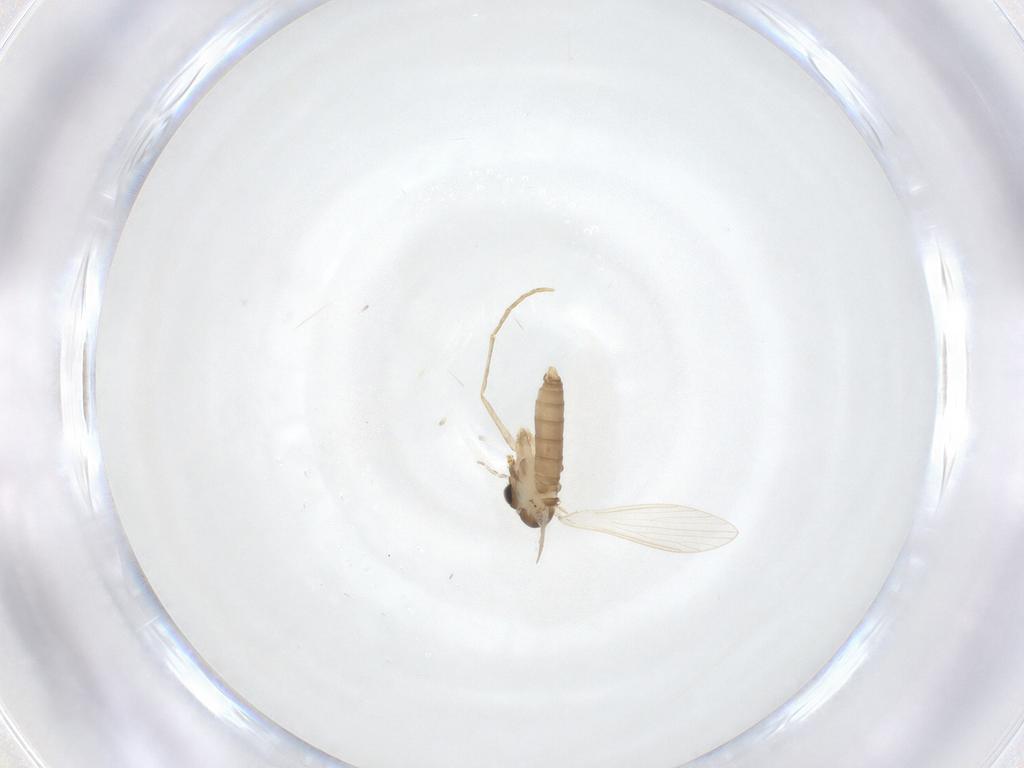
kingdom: Animalia
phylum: Arthropoda
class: Insecta
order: Diptera
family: Psychodidae
